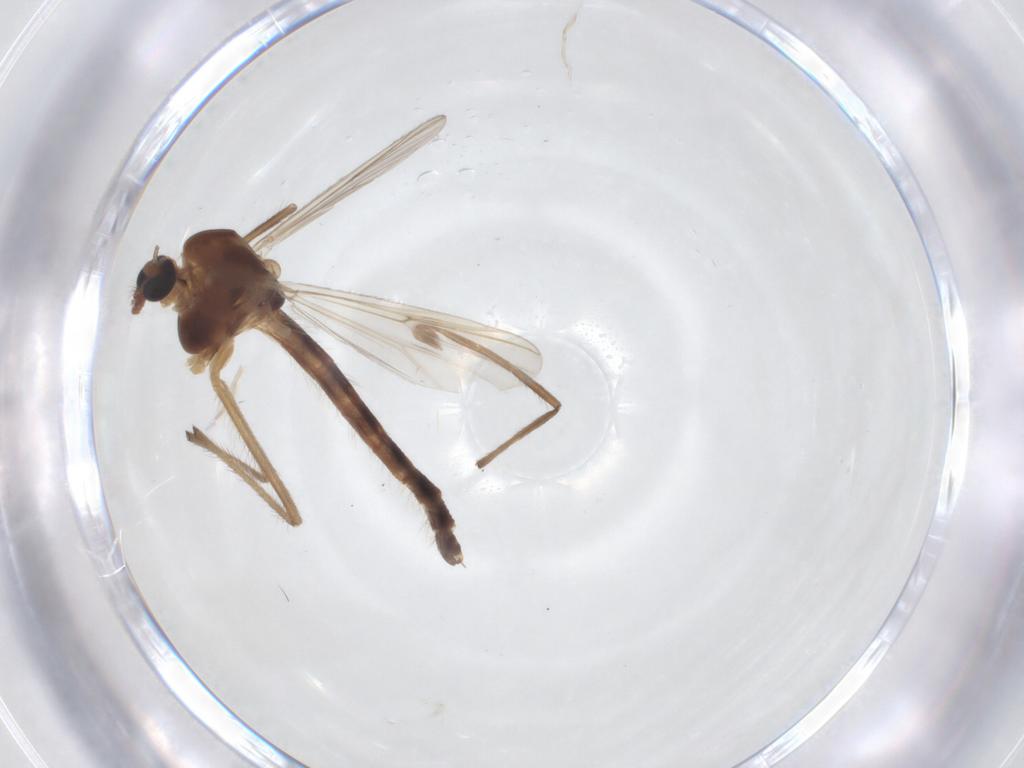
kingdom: Animalia
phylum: Arthropoda
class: Insecta
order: Diptera
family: Chironomidae
